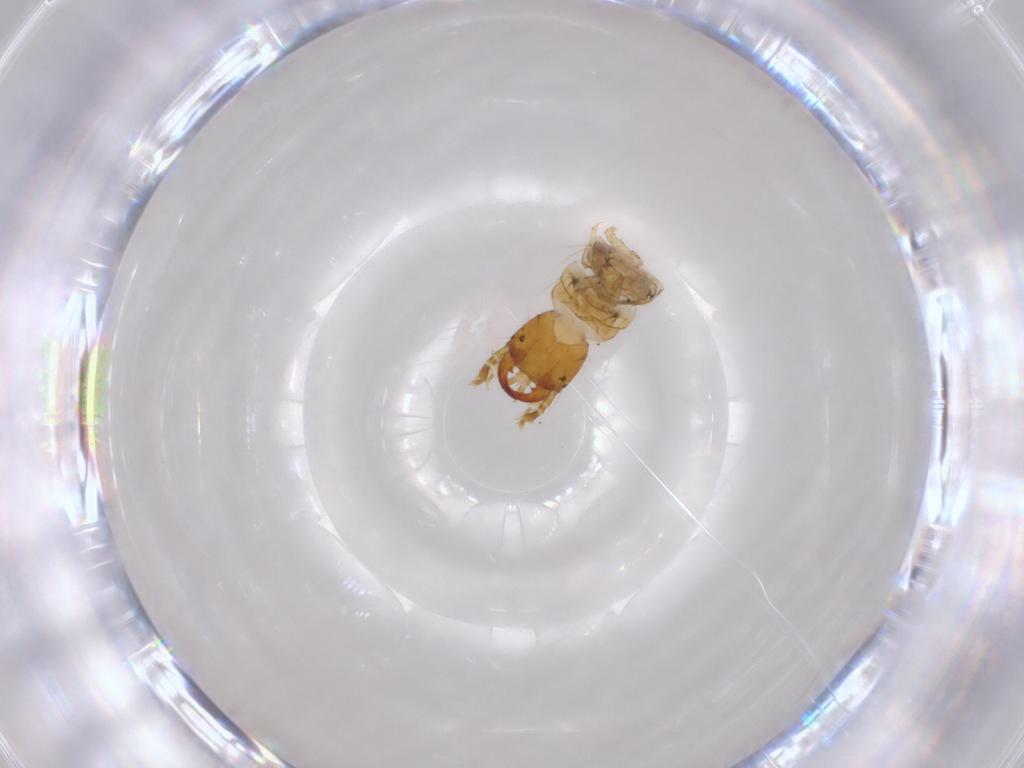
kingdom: Animalia
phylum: Arthropoda
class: Insecta
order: Coleoptera
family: Carabidae
